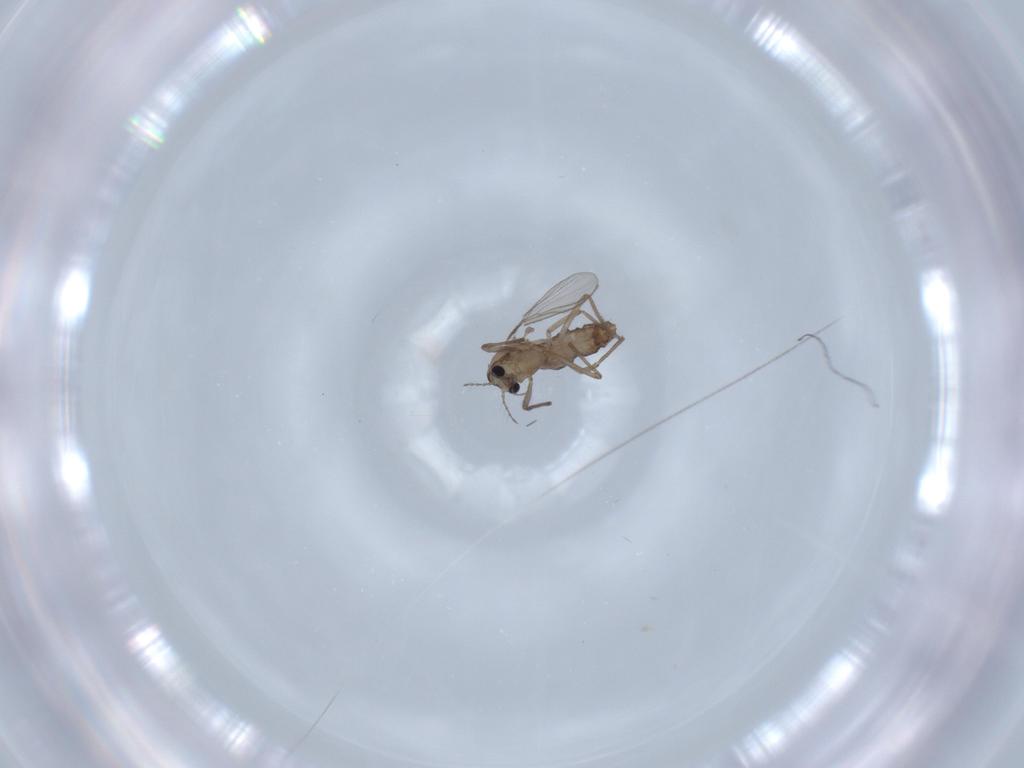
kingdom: Animalia
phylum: Arthropoda
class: Insecta
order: Diptera
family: Chironomidae
